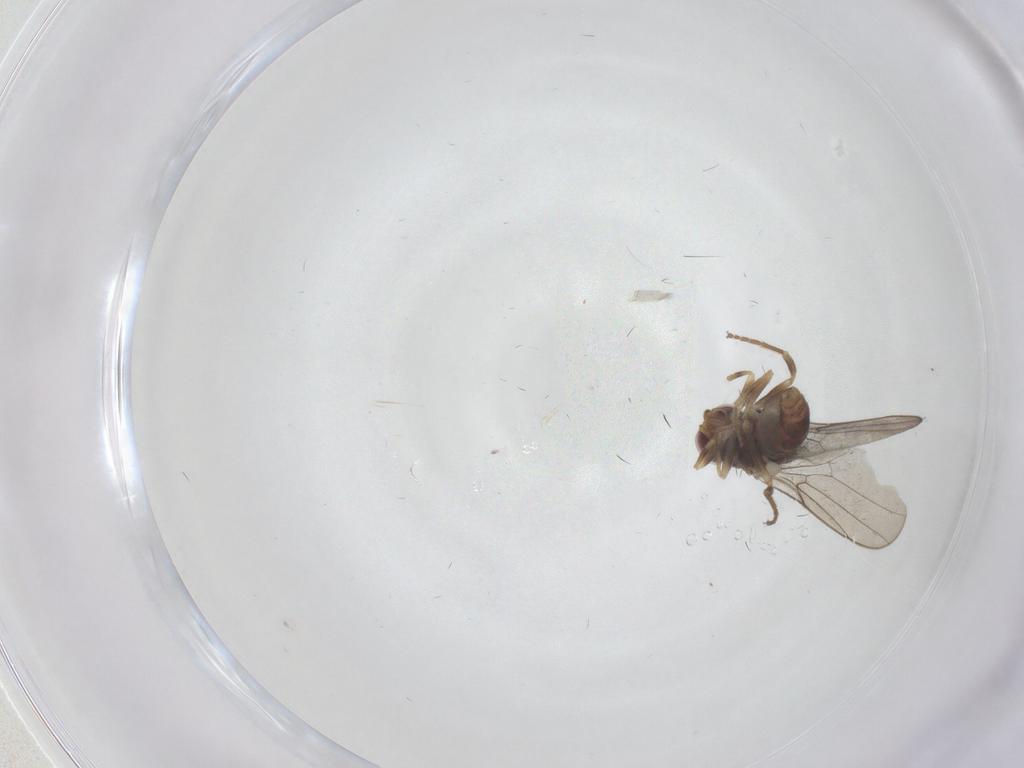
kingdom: Animalia
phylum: Arthropoda
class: Insecta
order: Diptera
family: Chloropidae
